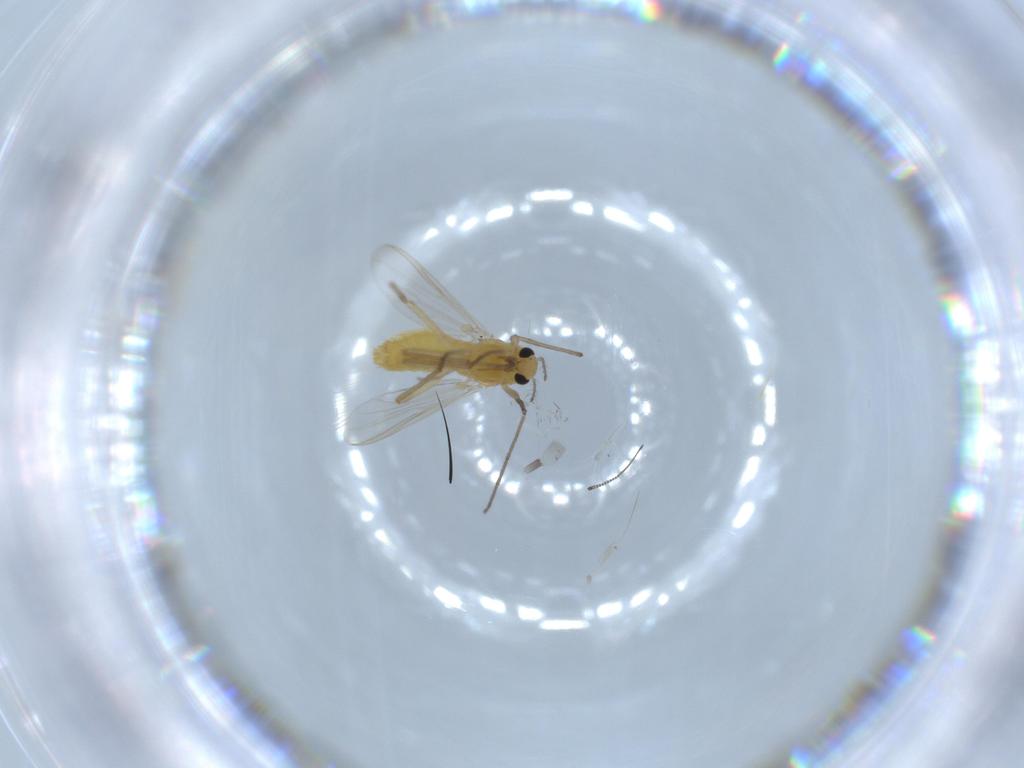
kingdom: Animalia
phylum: Arthropoda
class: Insecta
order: Diptera
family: Chironomidae
